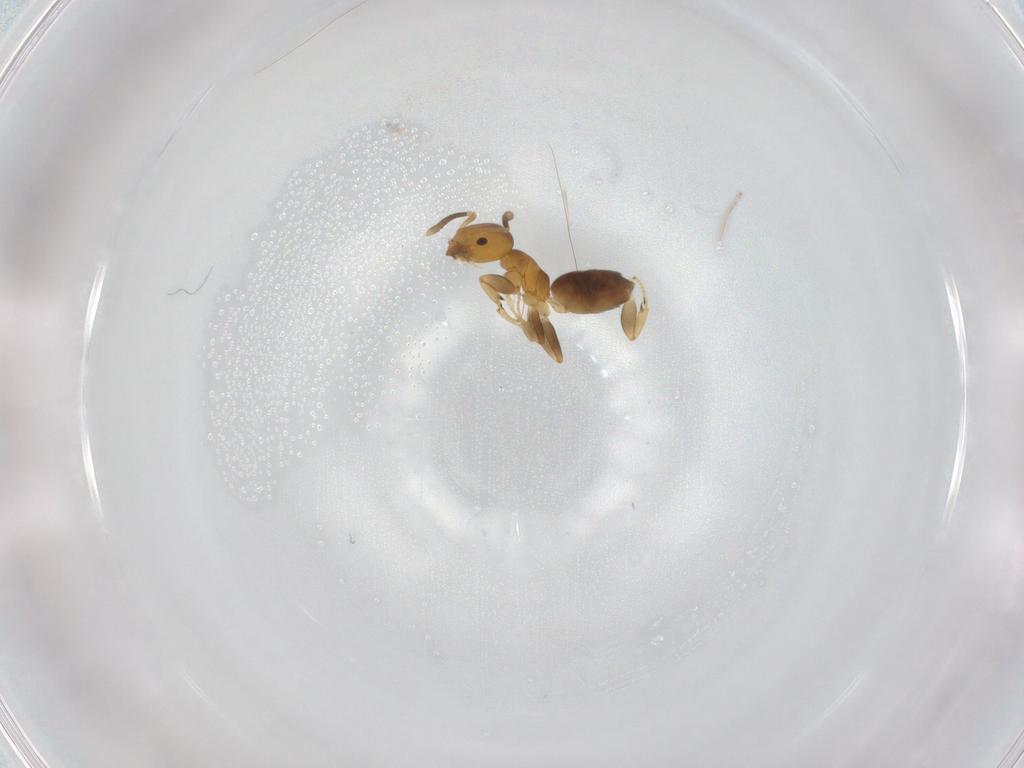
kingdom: Animalia
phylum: Arthropoda
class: Insecta
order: Hymenoptera
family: Formicidae
